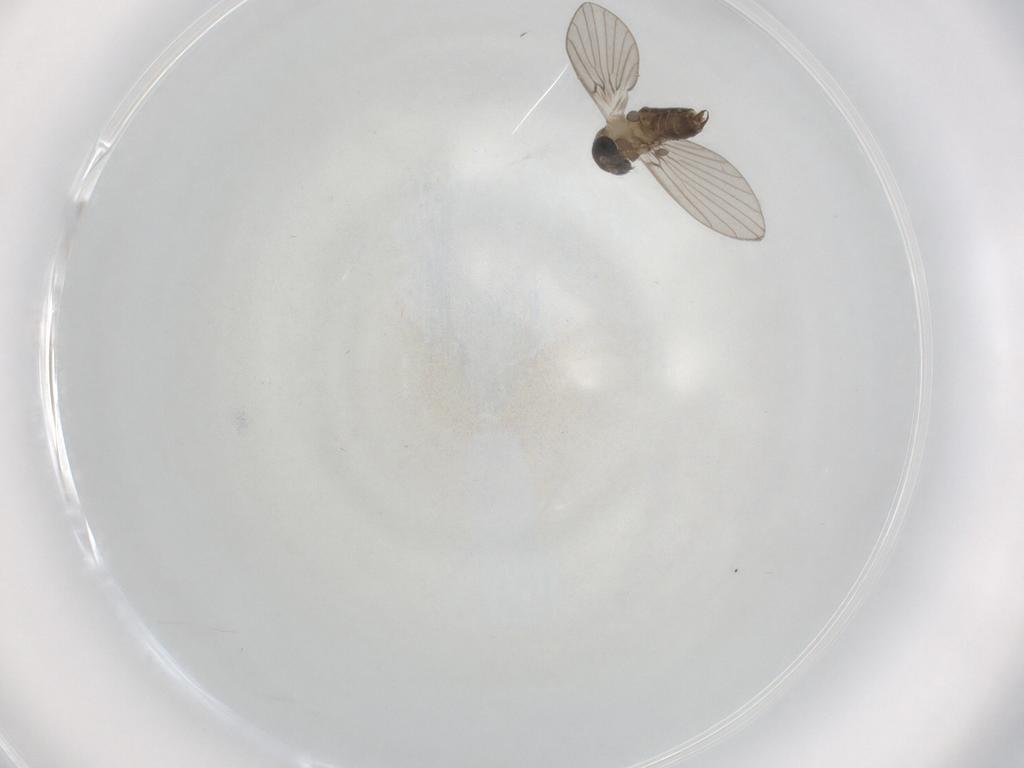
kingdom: Animalia
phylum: Arthropoda
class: Insecta
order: Diptera
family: Psychodidae
